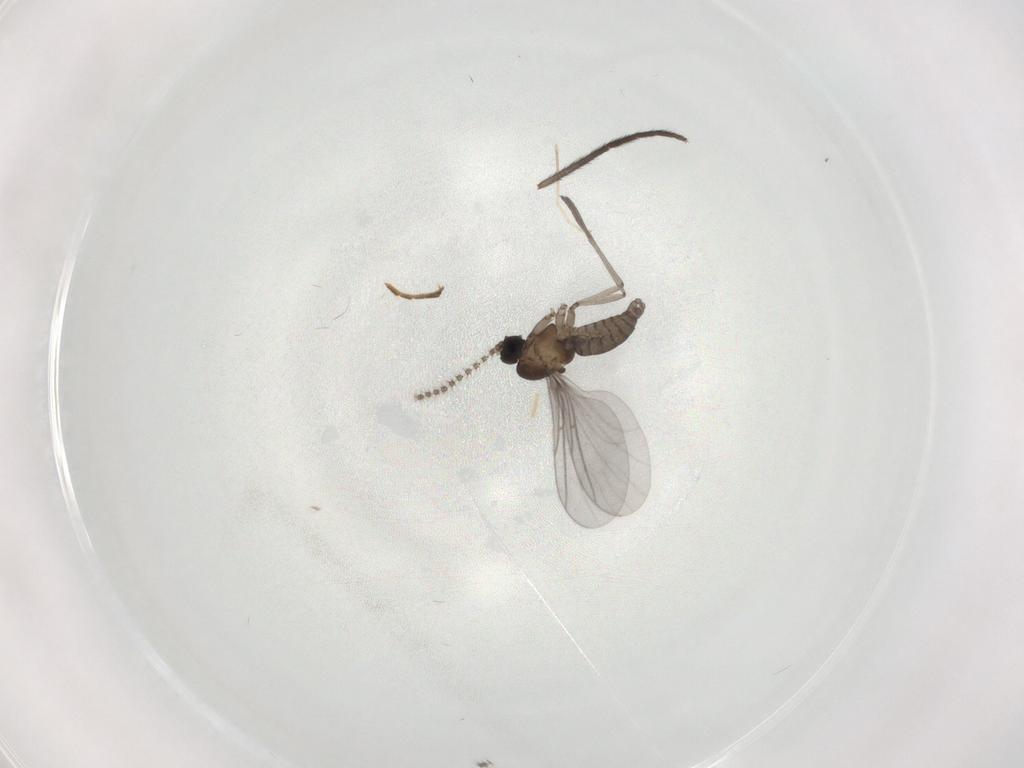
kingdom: Animalia
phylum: Arthropoda
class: Insecta
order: Diptera
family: Sciaridae
